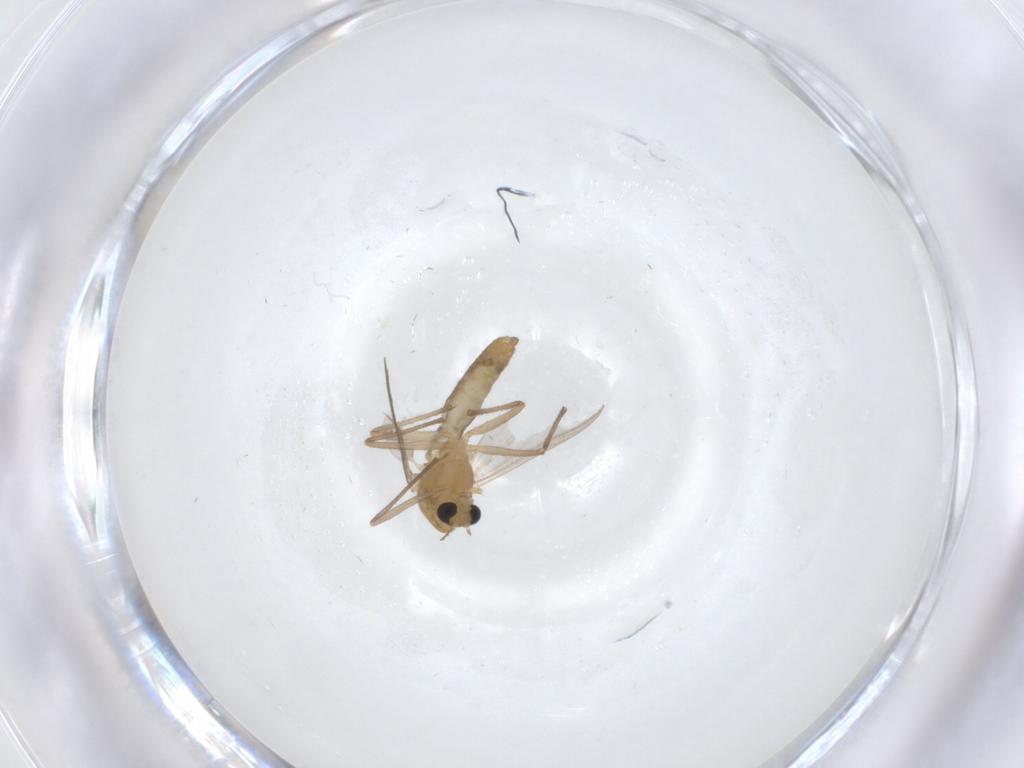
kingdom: Animalia
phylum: Arthropoda
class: Insecta
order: Diptera
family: Chironomidae
